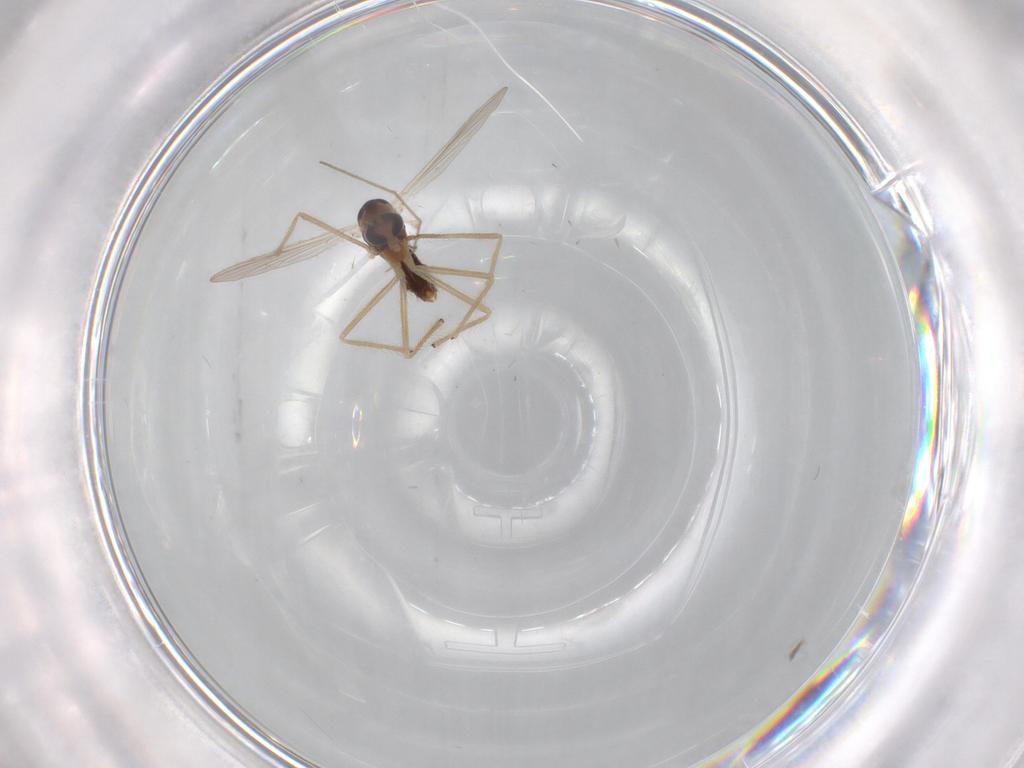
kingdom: Animalia
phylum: Arthropoda
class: Insecta
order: Diptera
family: Chironomidae
